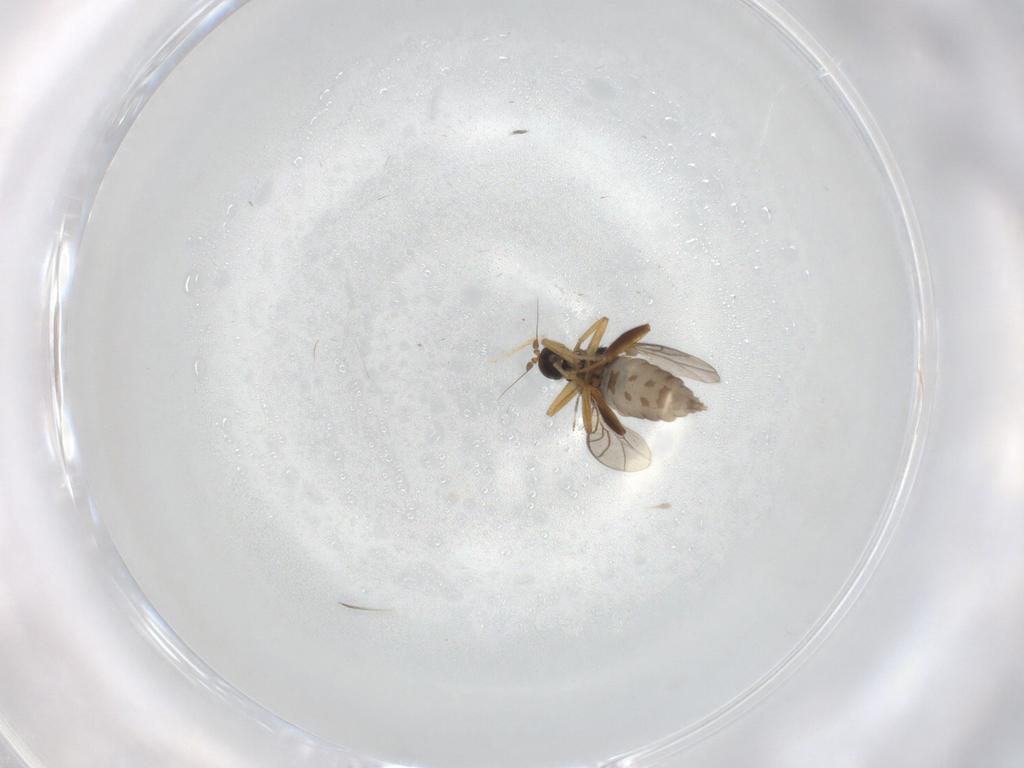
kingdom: Animalia
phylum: Arthropoda
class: Insecta
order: Diptera
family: Hybotidae
